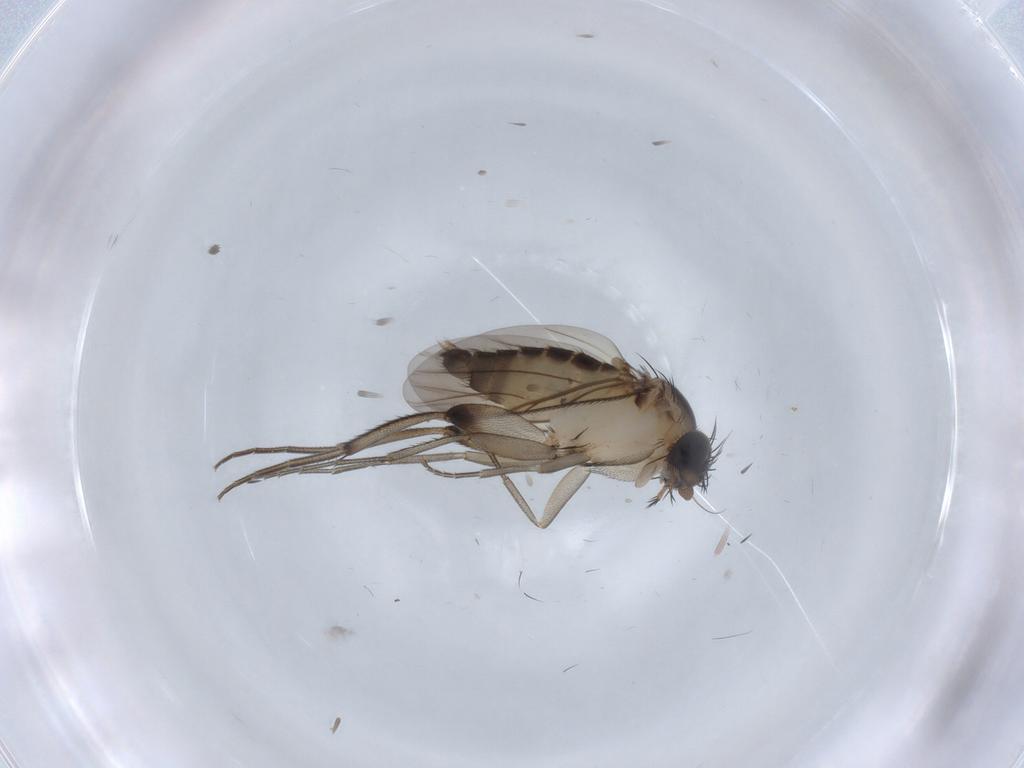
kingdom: Animalia
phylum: Arthropoda
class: Insecta
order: Diptera
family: Phoridae
